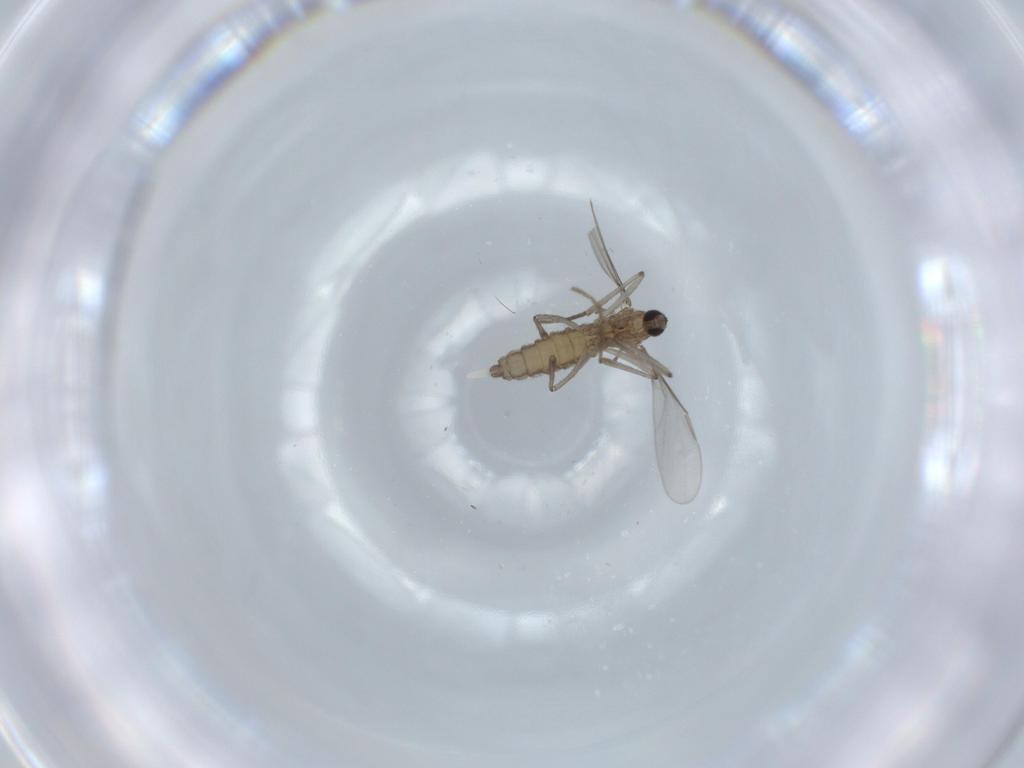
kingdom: Animalia
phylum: Arthropoda
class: Insecta
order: Diptera
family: Cecidomyiidae
